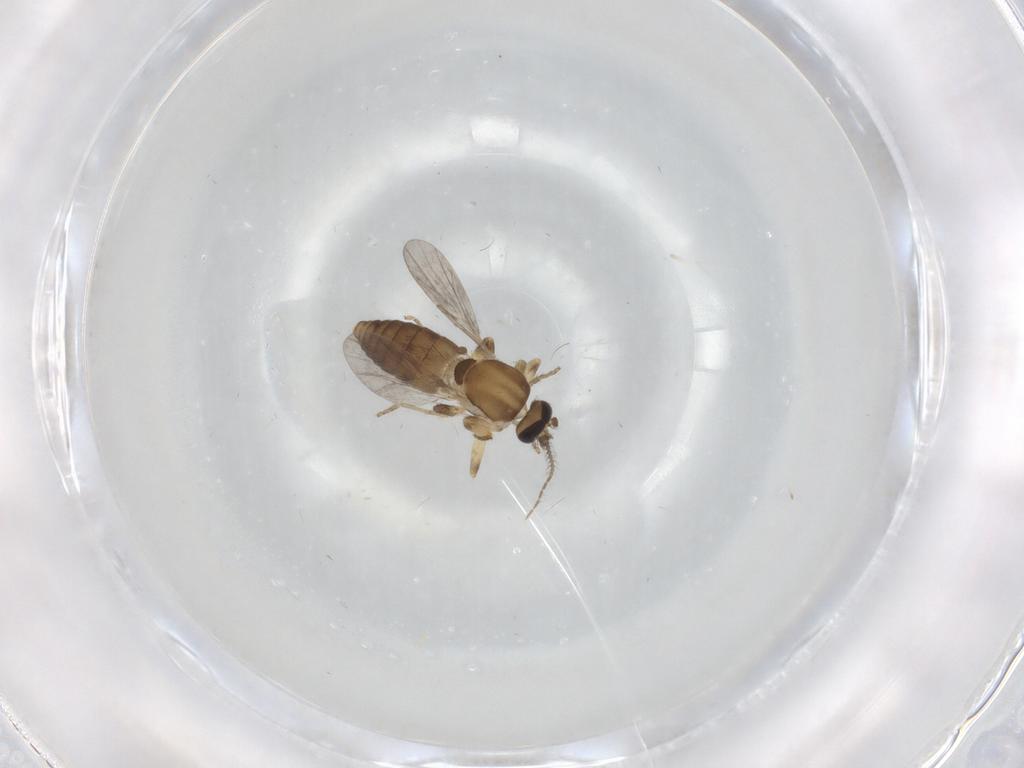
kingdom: Animalia
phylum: Arthropoda
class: Insecta
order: Diptera
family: Ceratopogonidae
